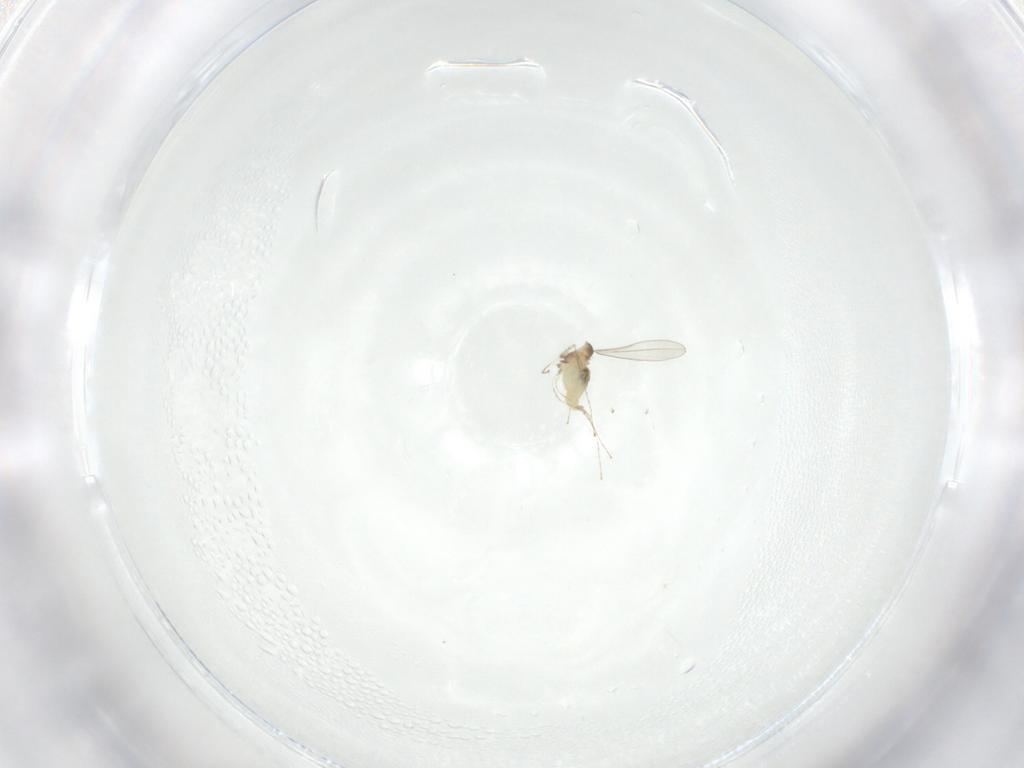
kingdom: Animalia
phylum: Arthropoda
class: Insecta
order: Diptera
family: Cecidomyiidae
